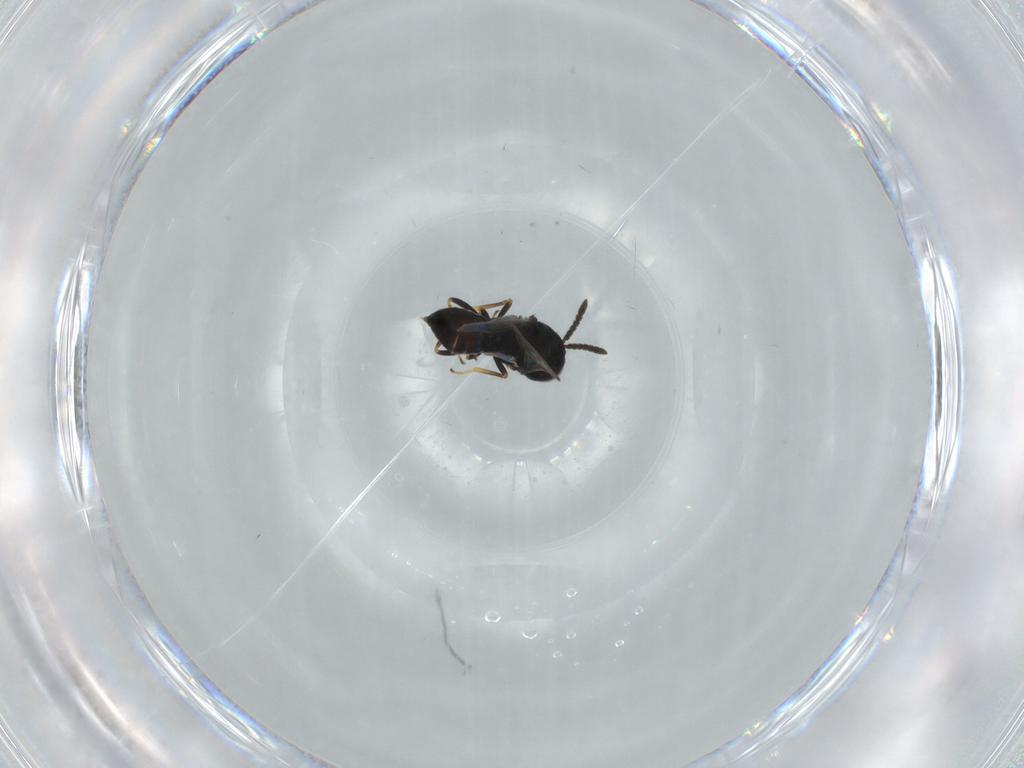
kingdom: Animalia
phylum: Arthropoda
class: Insecta
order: Hymenoptera
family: Pteromalidae
